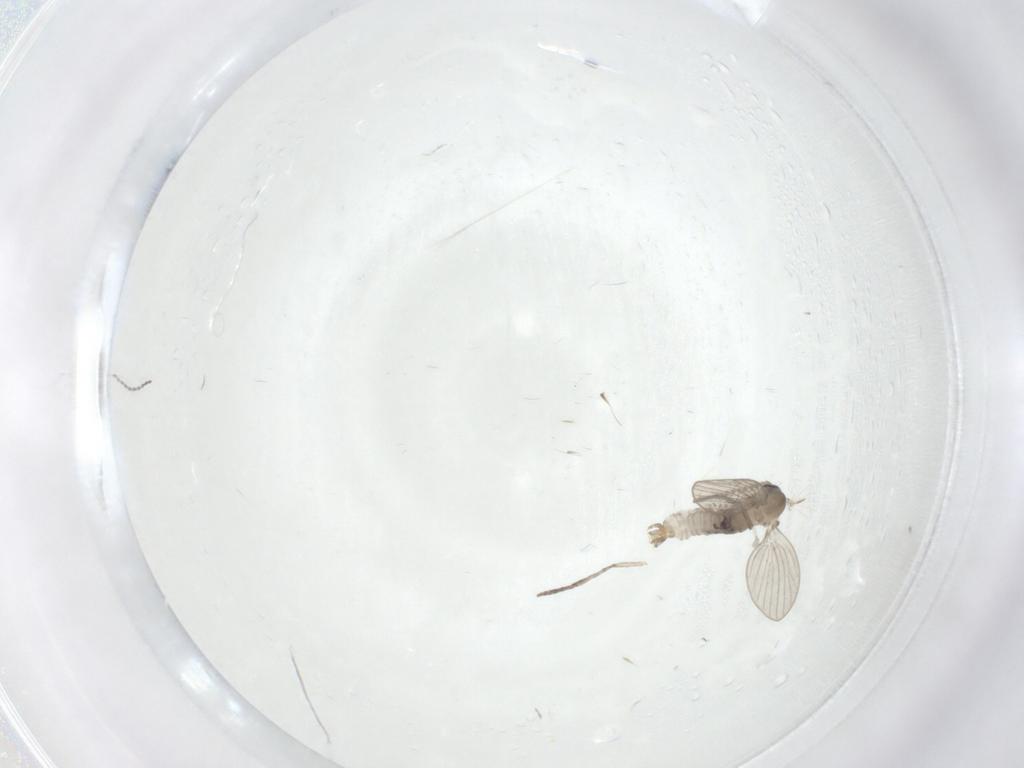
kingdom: Animalia
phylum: Arthropoda
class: Insecta
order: Diptera
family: Psychodidae
